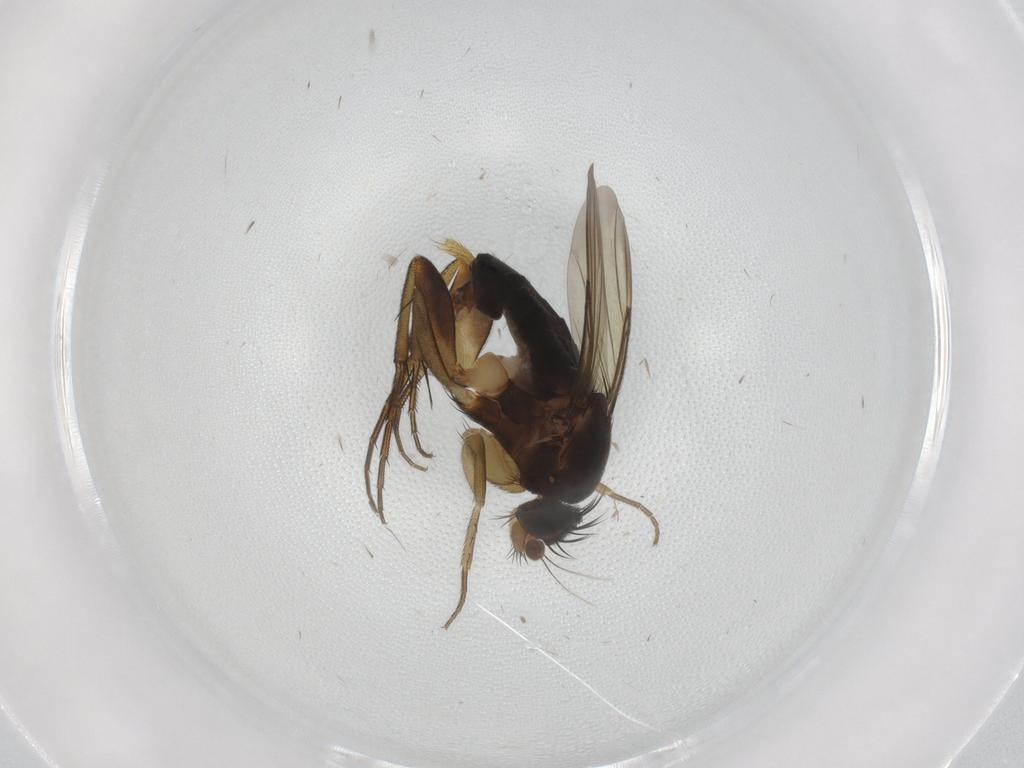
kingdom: Animalia
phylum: Arthropoda
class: Insecta
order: Diptera
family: Phoridae
